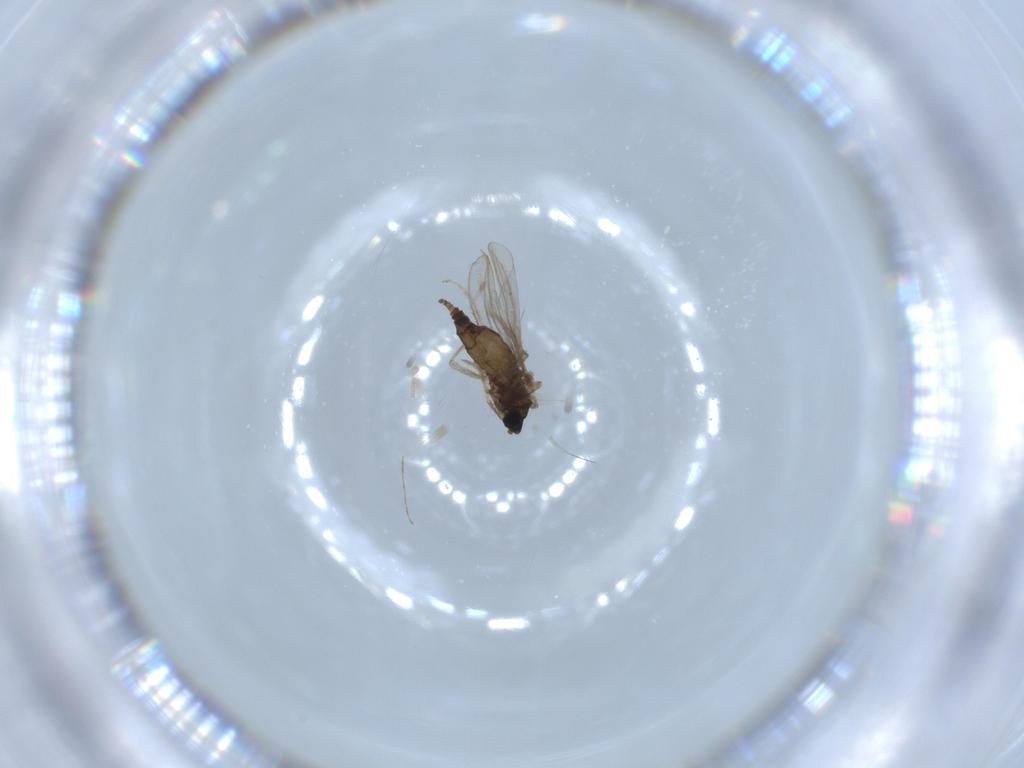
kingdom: Animalia
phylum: Arthropoda
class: Insecta
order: Diptera
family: Cecidomyiidae
